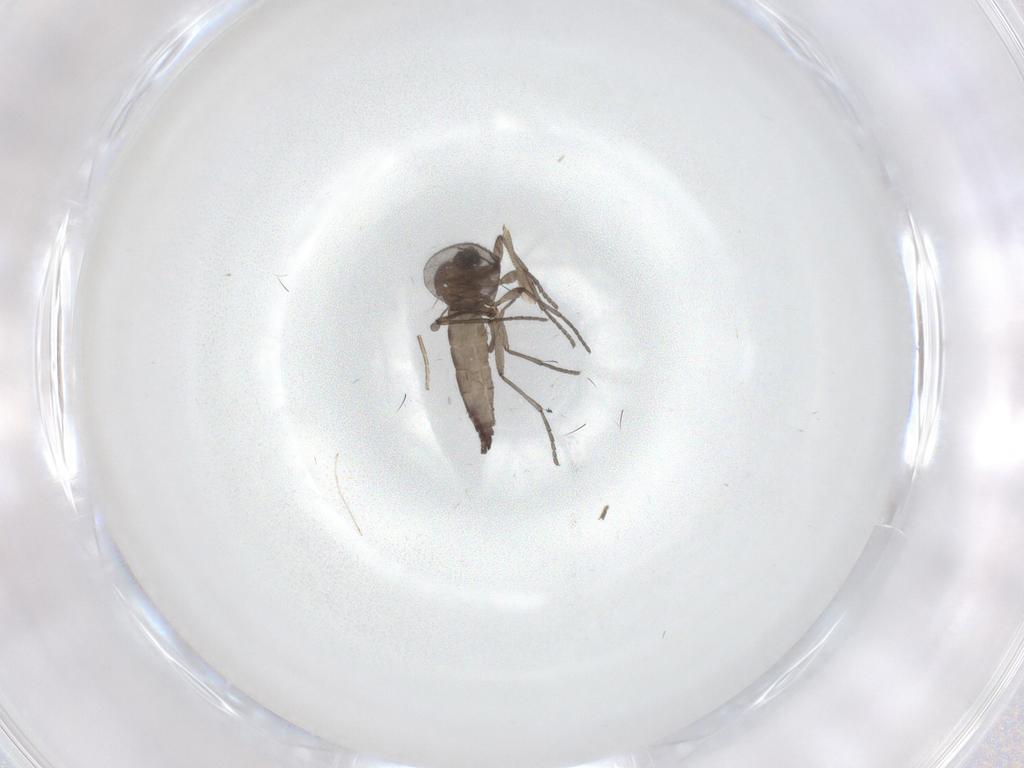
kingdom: Animalia
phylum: Arthropoda
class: Insecta
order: Diptera
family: Sciaridae
